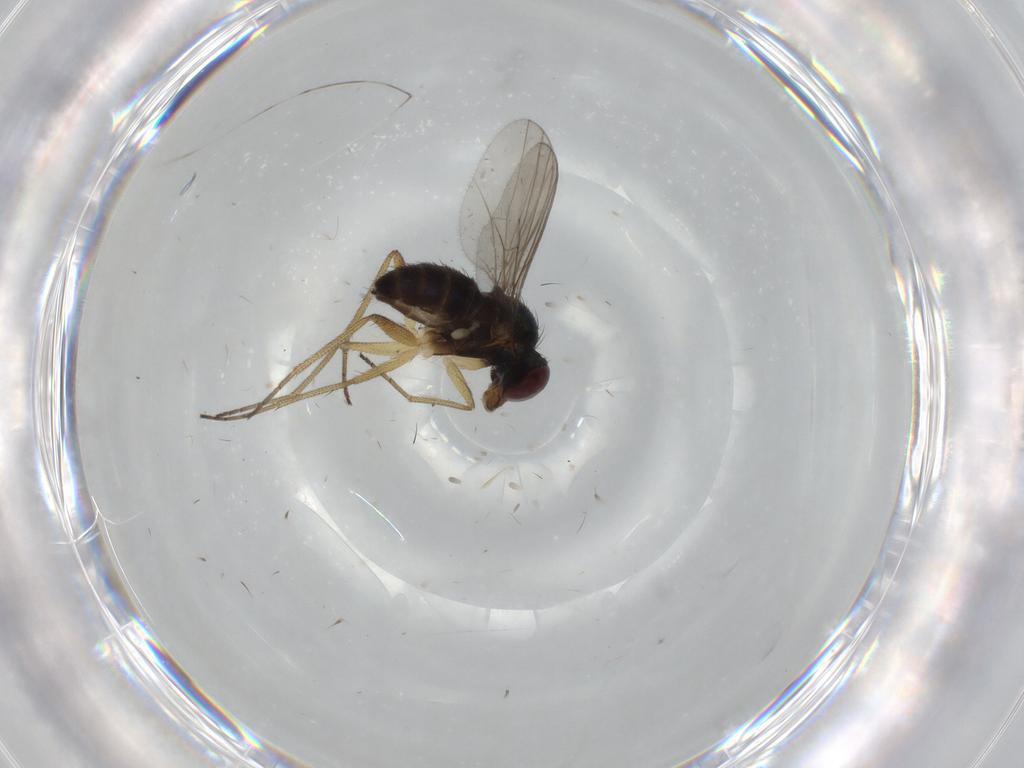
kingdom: Animalia
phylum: Arthropoda
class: Insecta
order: Diptera
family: Dolichopodidae
